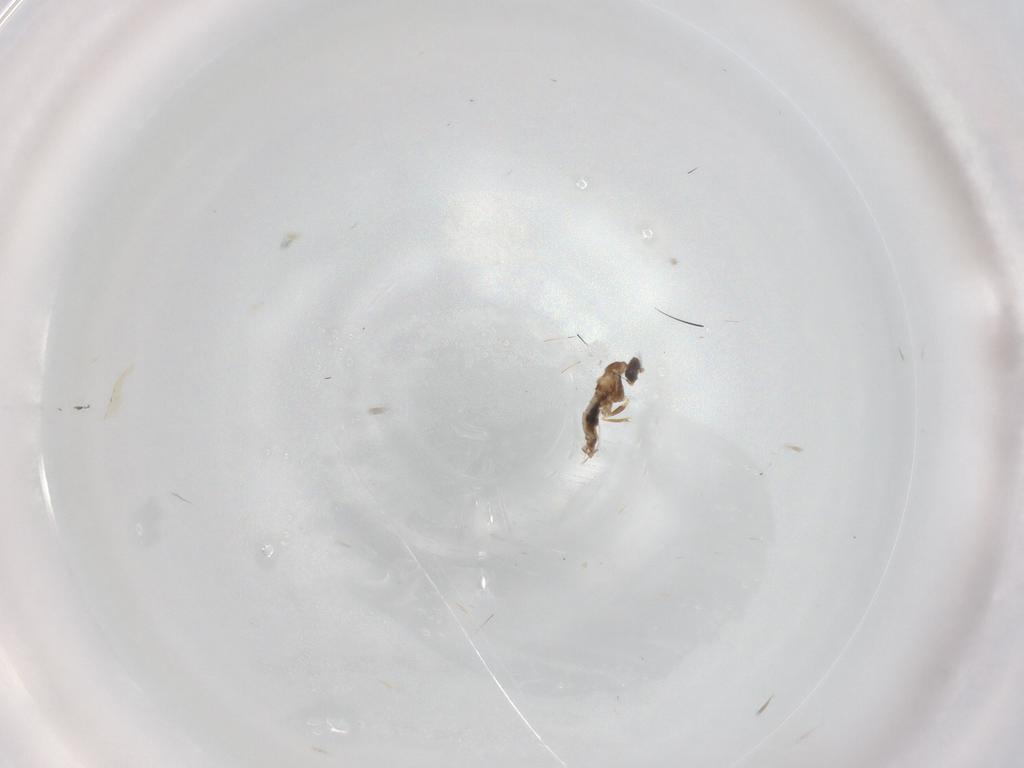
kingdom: Animalia
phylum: Arthropoda
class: Insecta
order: Diptera
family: Cecidomyiidae
